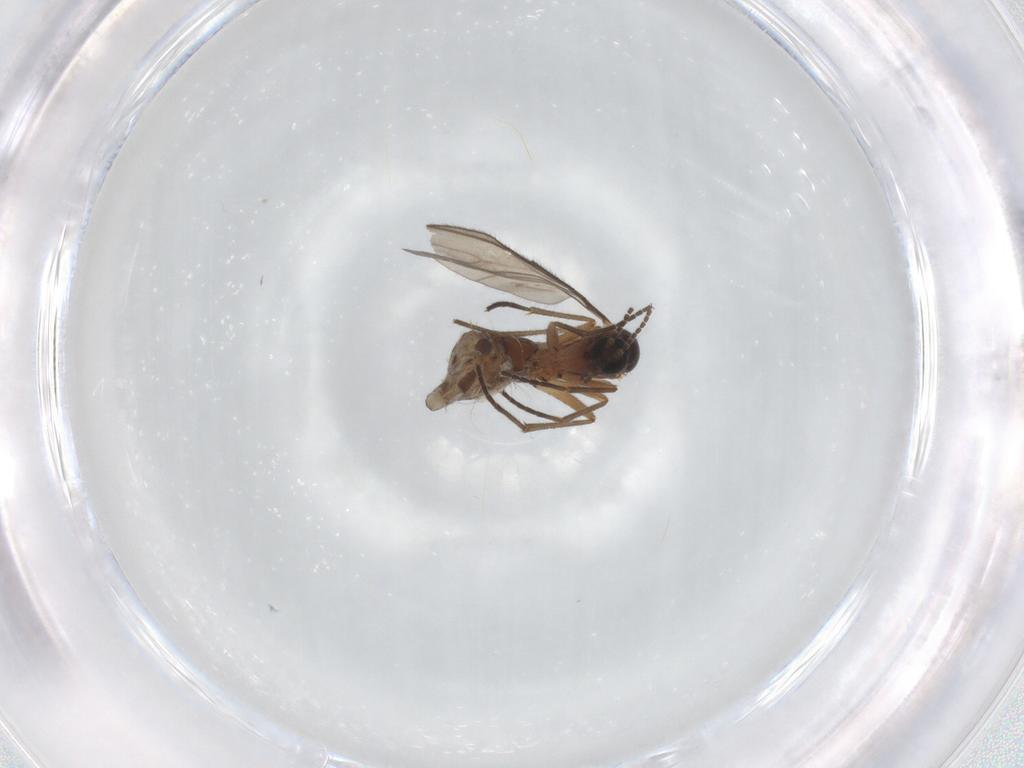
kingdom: Animalia
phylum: Arthropoda
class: Insecta
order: Diptera
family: Sciaridae
